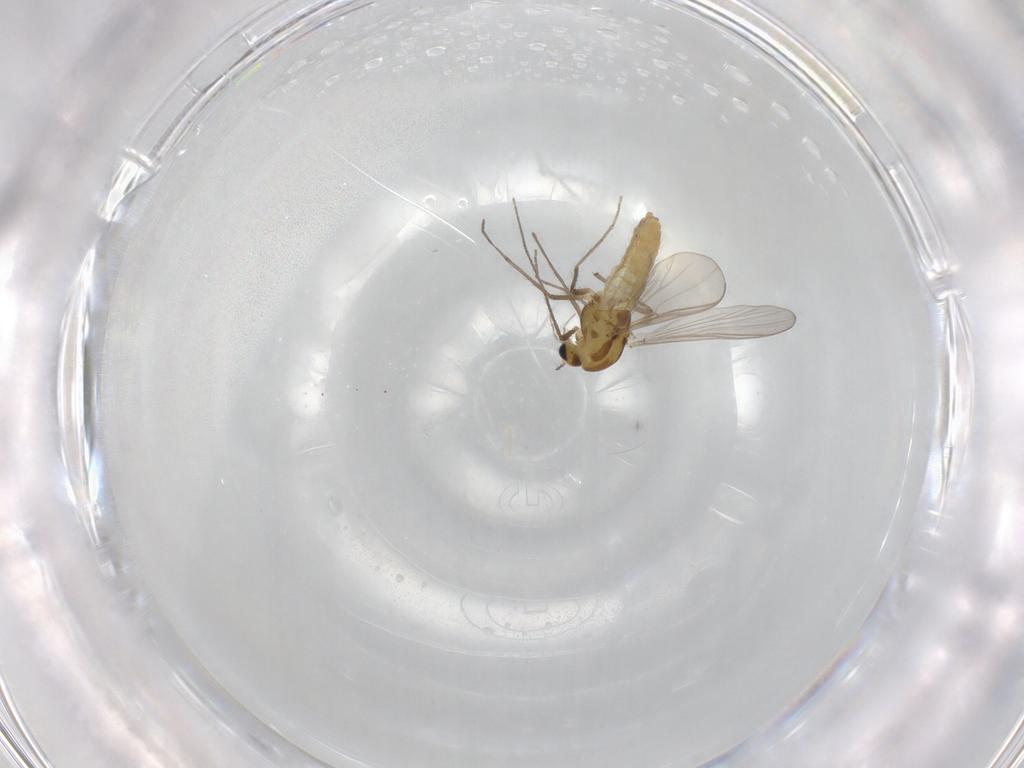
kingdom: Animalia
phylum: Arthropoda
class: Insecta
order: Diptera
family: Chironomidae
